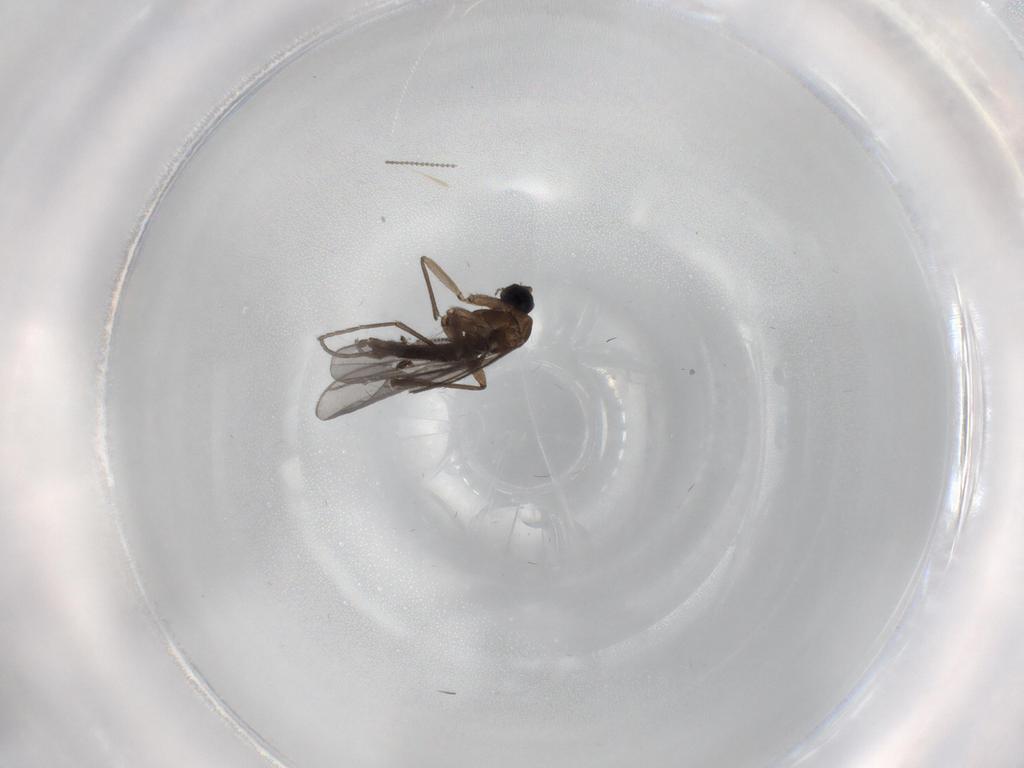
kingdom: Animalia
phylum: Arthropoda
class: Insecta
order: Diptera
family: Sciaridae
